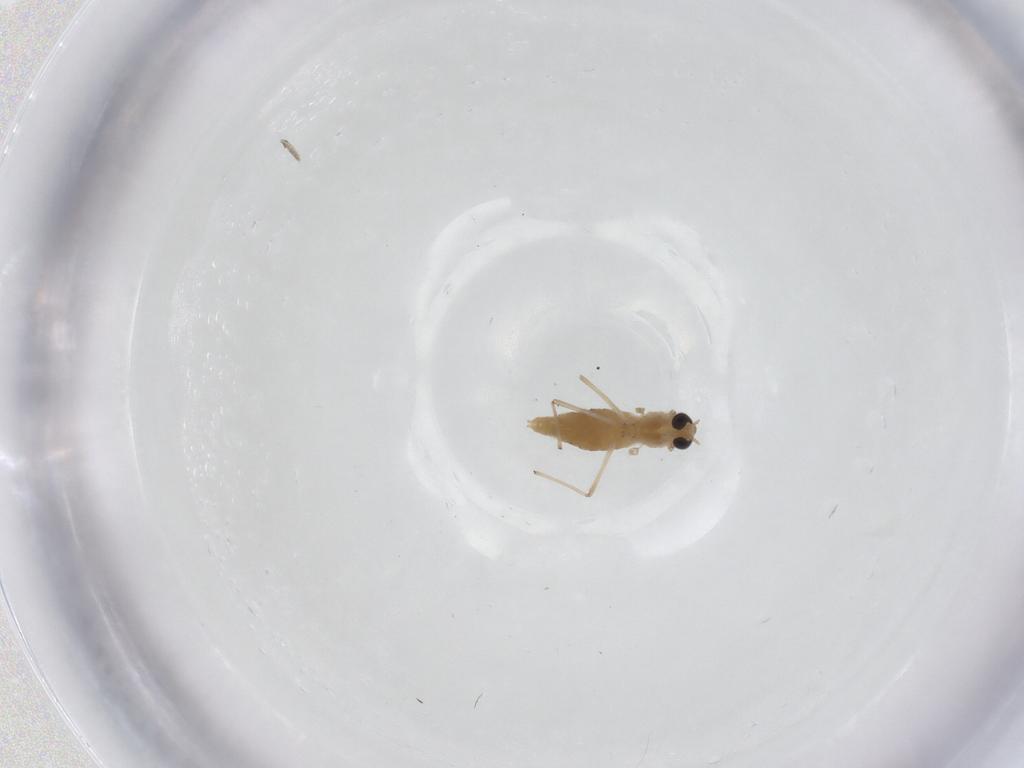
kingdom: Animalia
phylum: Arthropoda
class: Insecta
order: Diptera
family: Chironomidae
